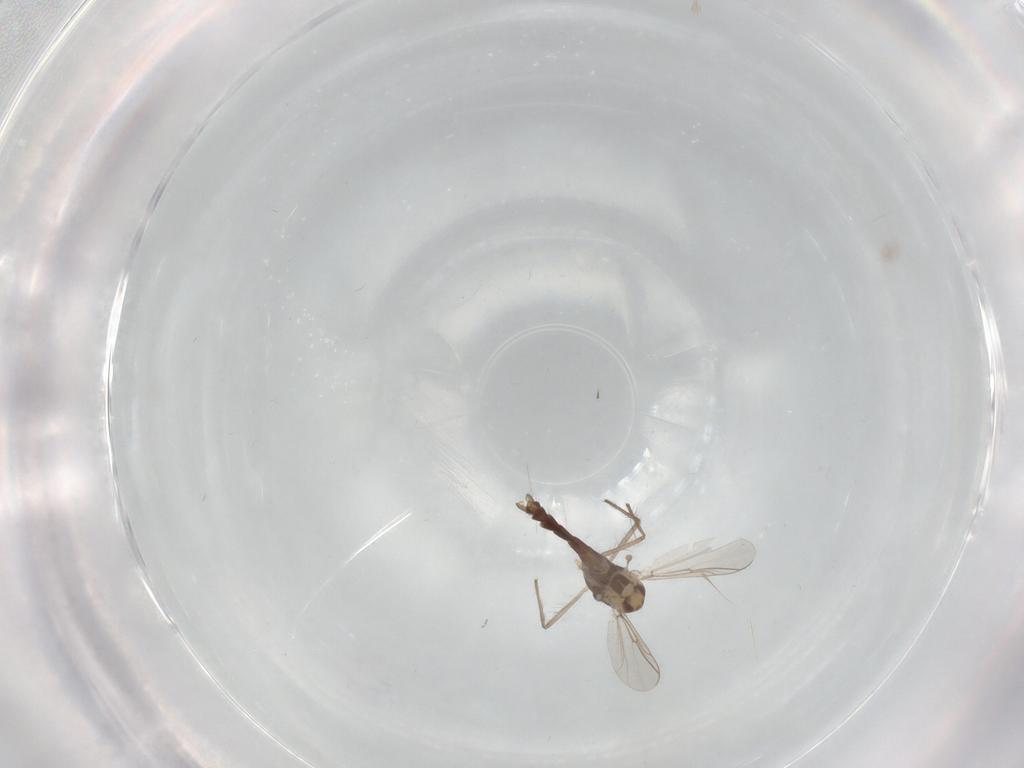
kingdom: Animalia
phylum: Arthropoda
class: Insecta
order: Diptera
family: Chironomidae
